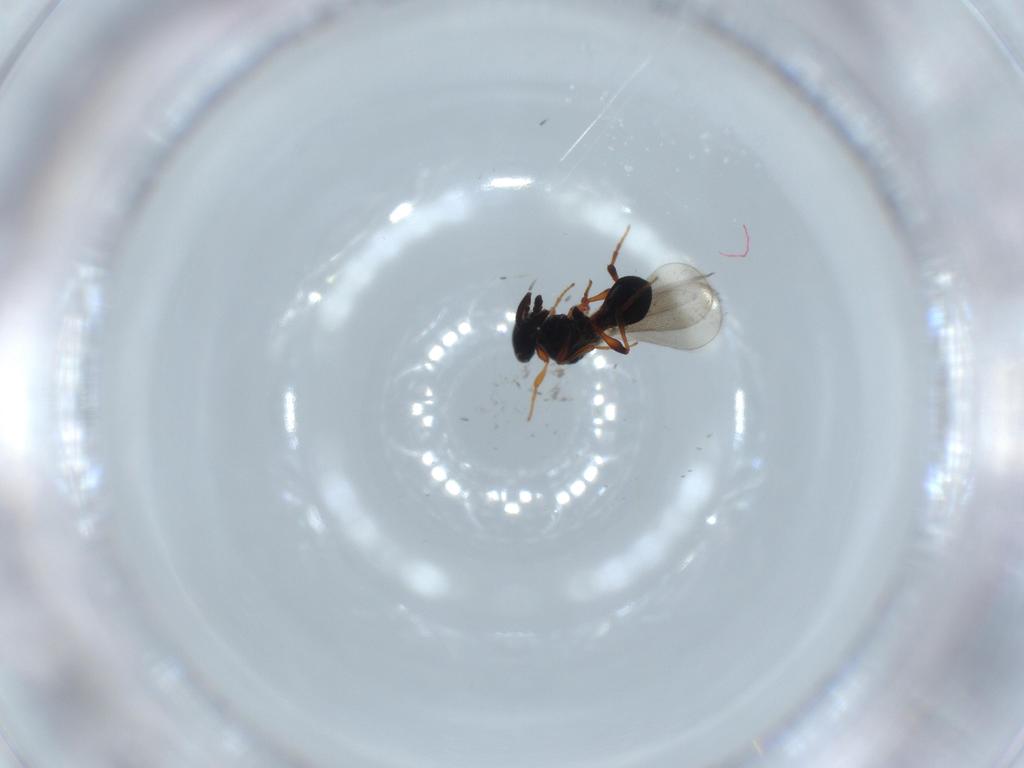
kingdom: Animalia
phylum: Arthropoda
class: Insecta
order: Hymenoptera
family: Platygastridae
